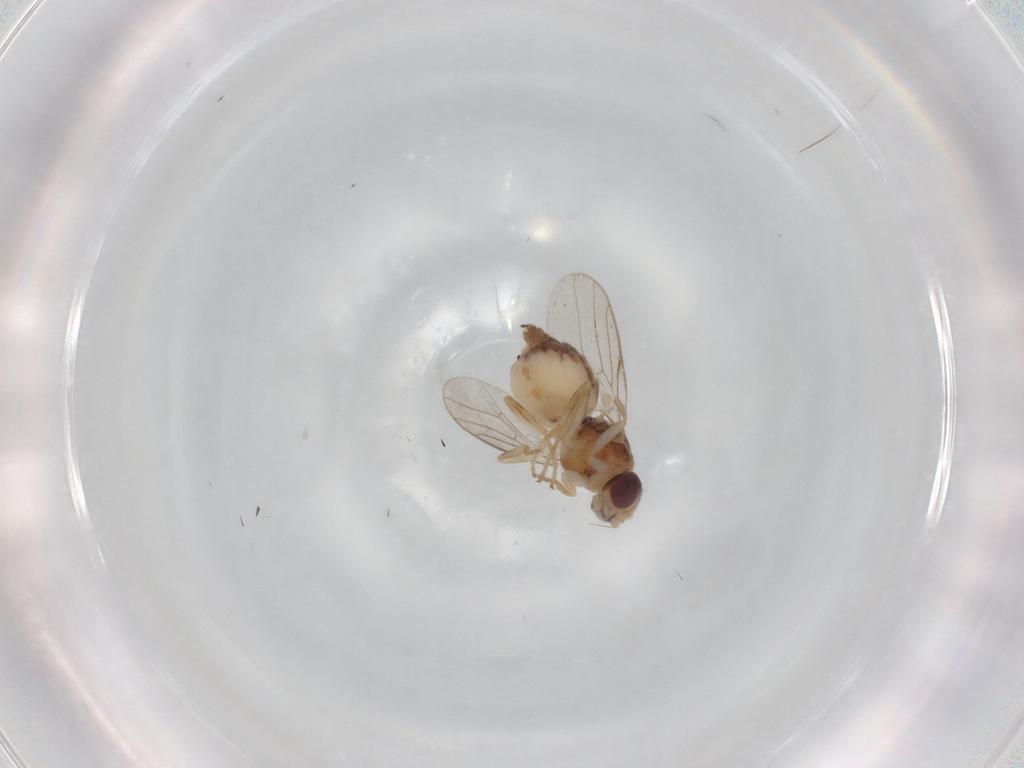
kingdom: Animalia
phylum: Arthropoda
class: Insecta
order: Diptera
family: Chloropidae
